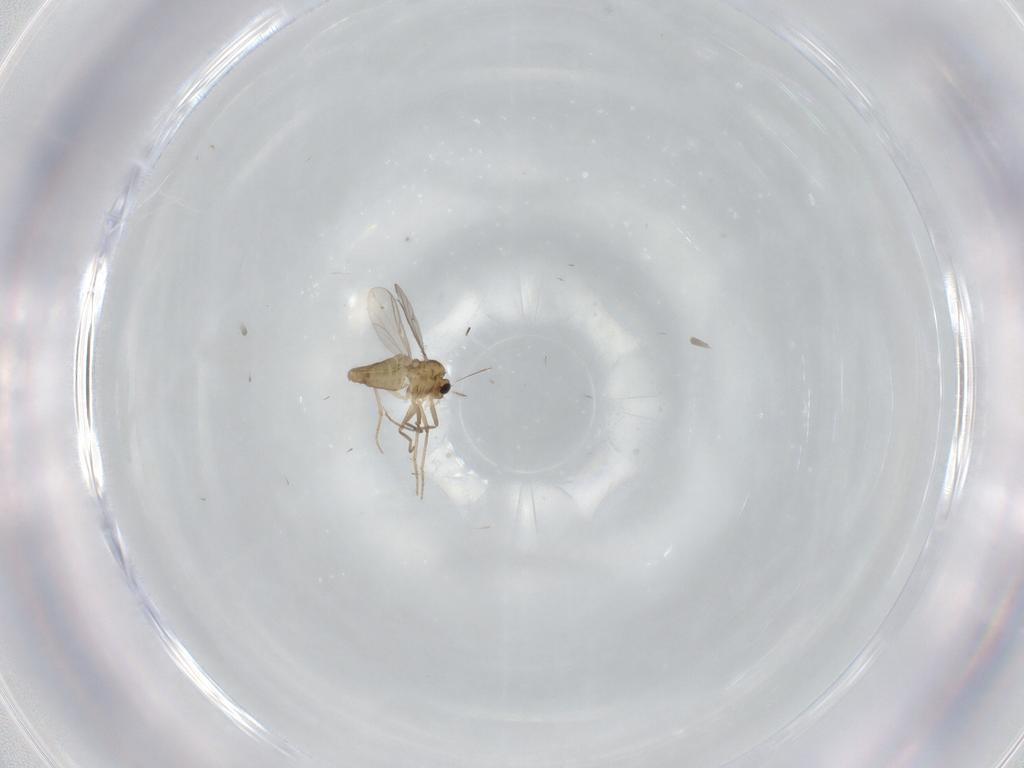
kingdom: Animalia
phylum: Arthropoda
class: Insecta
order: Diptera
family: Chironomidae
